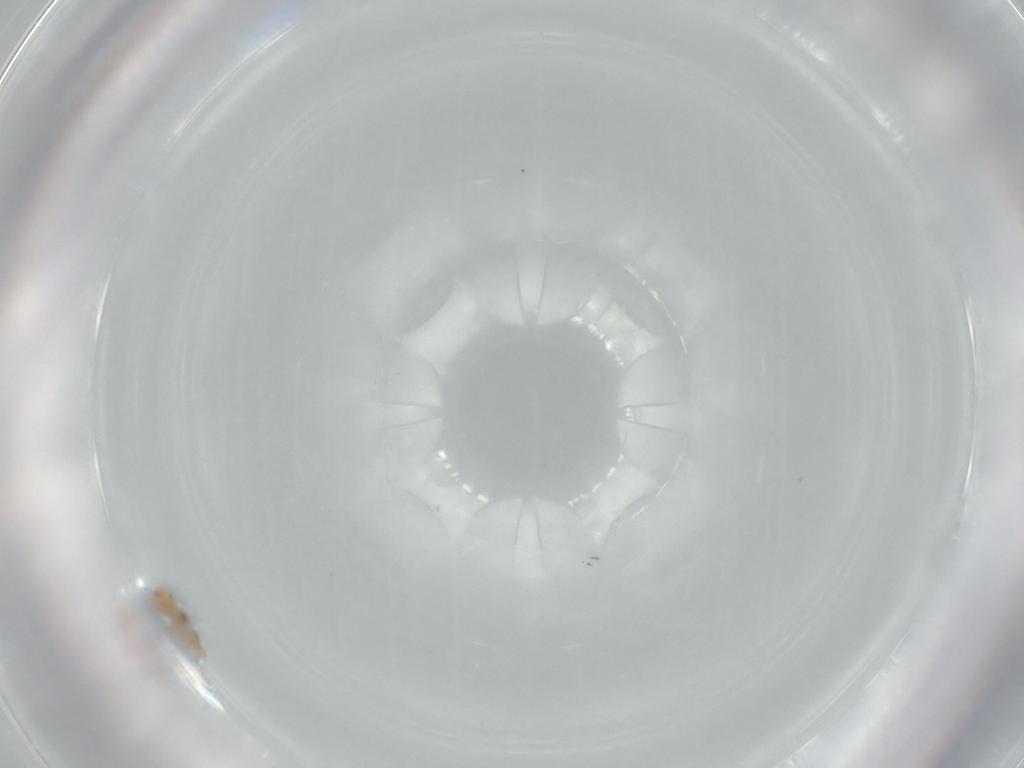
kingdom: Animalia
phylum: Arthropoda
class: Insecta
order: Psocodea
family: Liposcelididae
